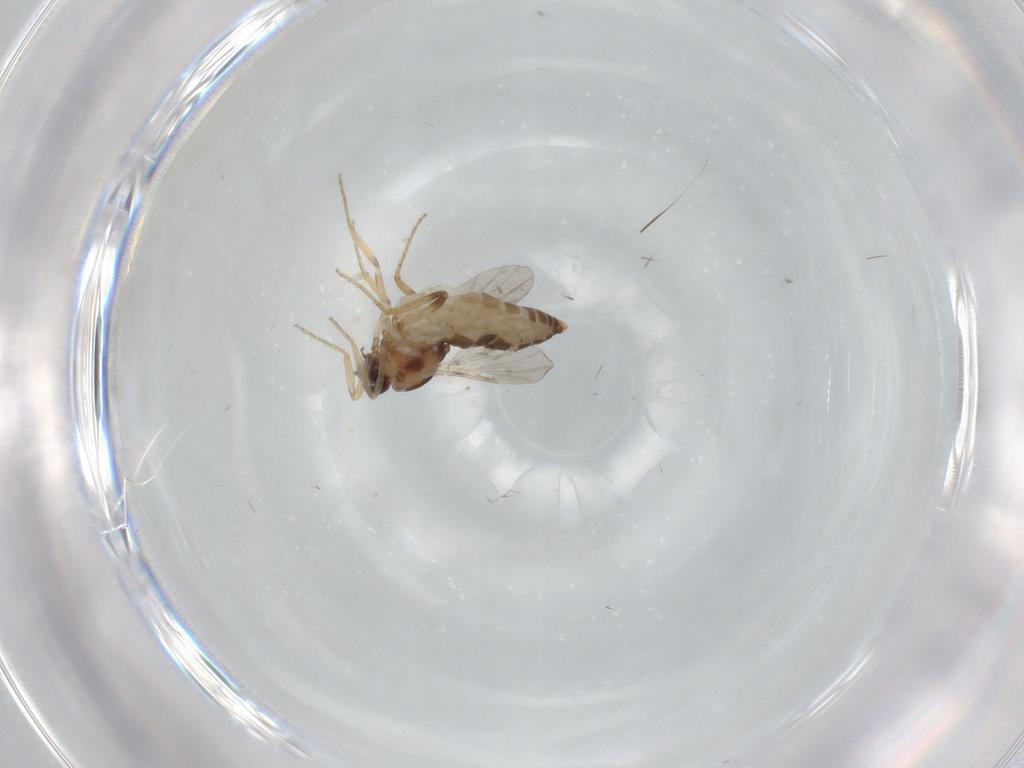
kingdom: Animalia
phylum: Arthropoda
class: Insecta
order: Diptera
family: Ceratopogonidae
